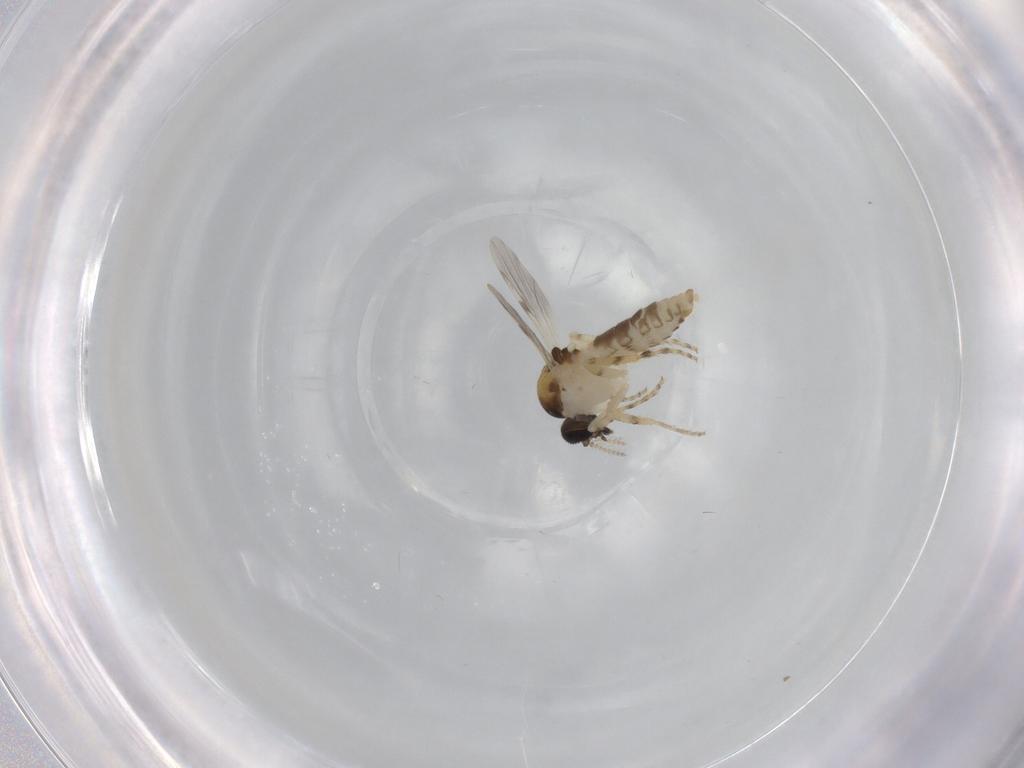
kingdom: Animalia
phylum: Arthropoda
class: Insecta
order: Diptera
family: Ceratopogonidae
